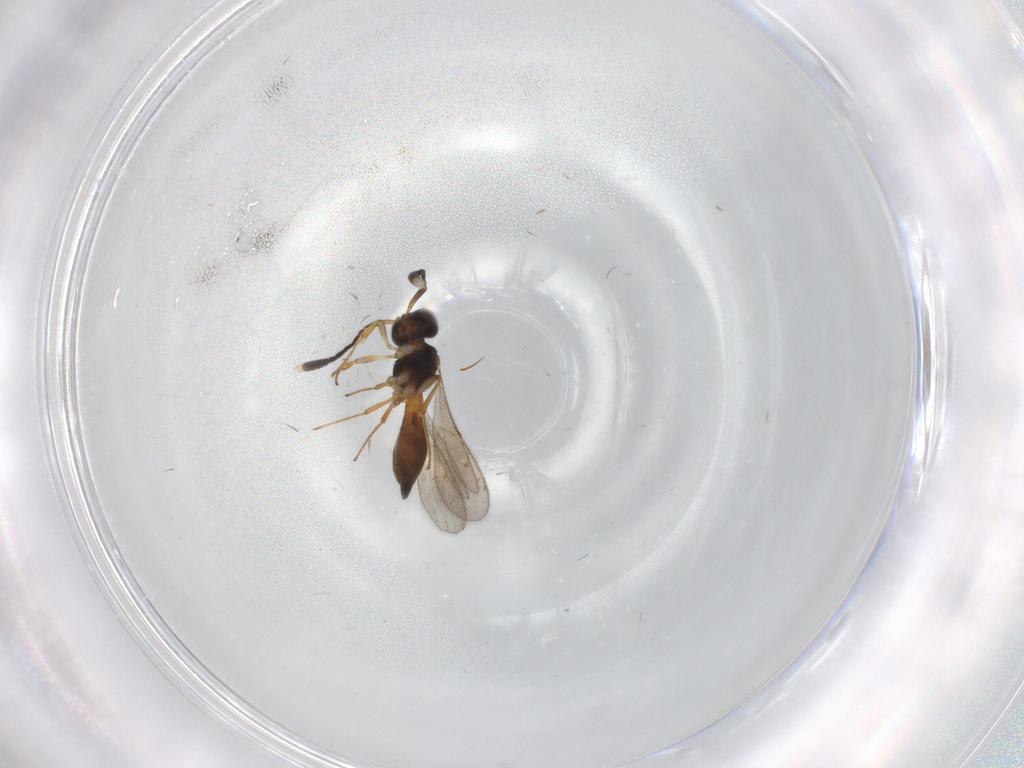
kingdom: Animalia
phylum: Arthropoda
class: Insecta
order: Hymenoptera
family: Scelionidae
